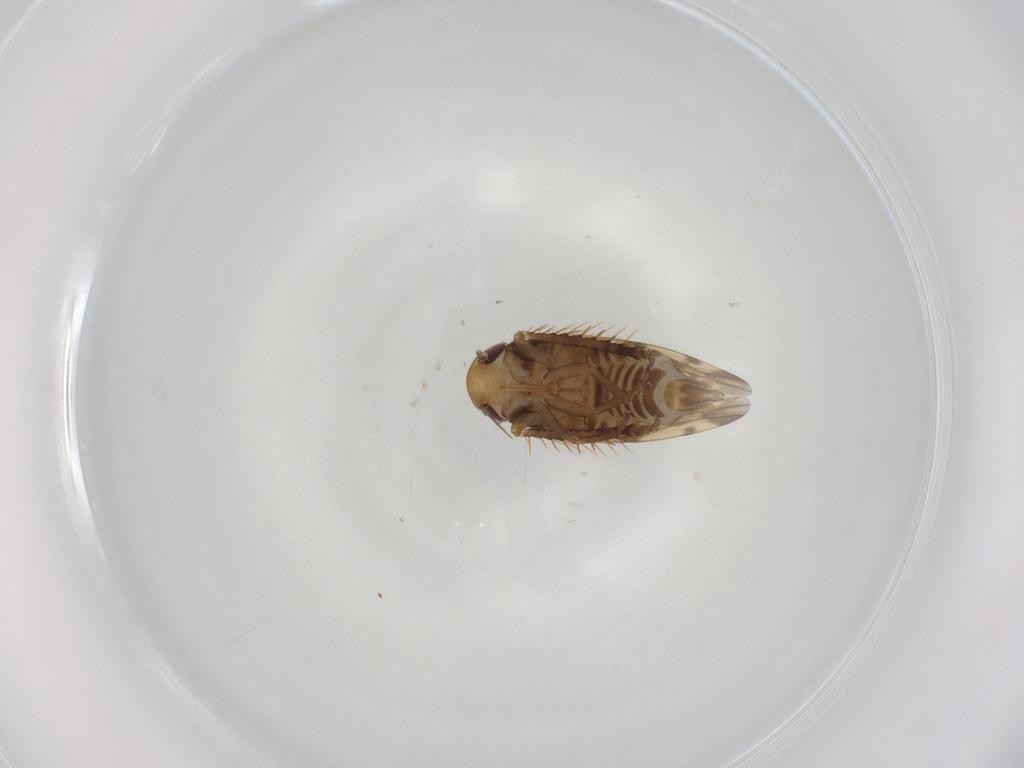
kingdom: Animalia
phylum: Arthropoda
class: Insecta
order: Hemiptera
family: Cicadellidae
